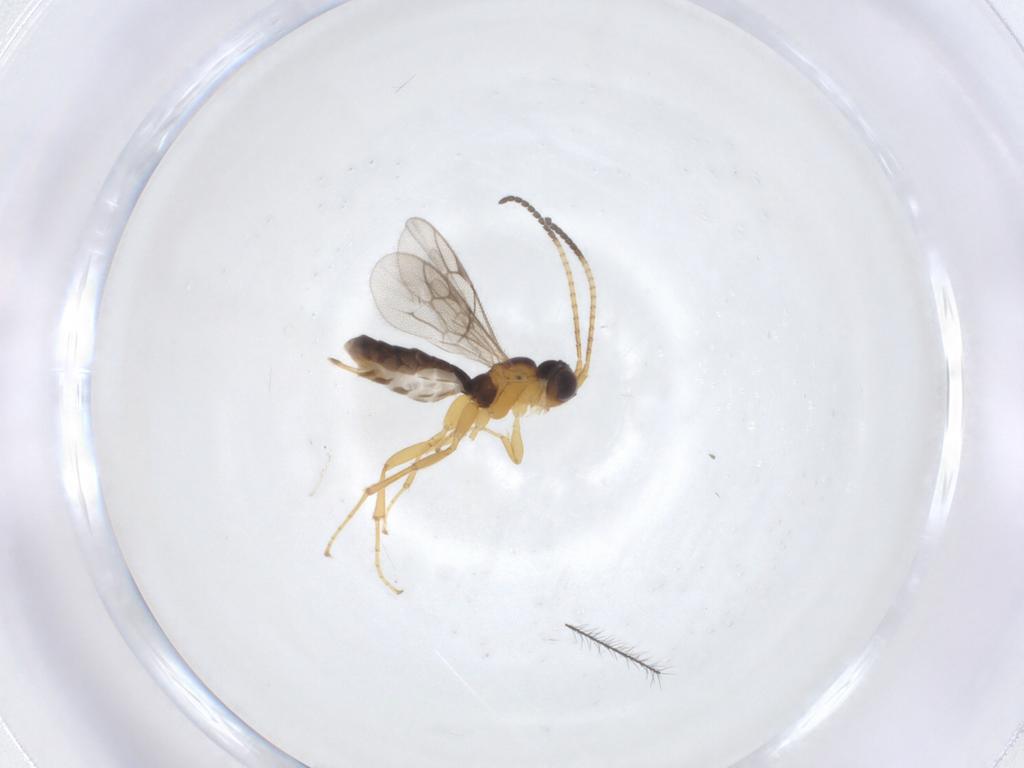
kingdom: Animalia
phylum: Arthropoda
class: Insecta
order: Hymenoptera
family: Ichneumonidae
